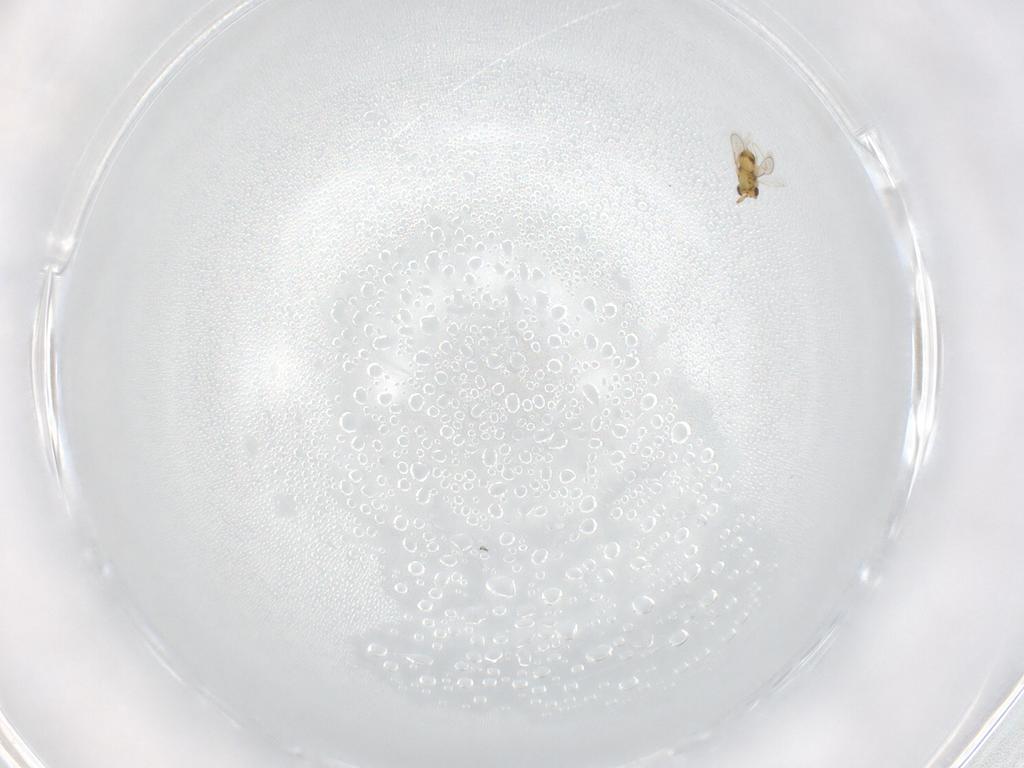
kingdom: Animalia
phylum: Arthropoda
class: Insecta
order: Hymenoptera
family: Aphelinidae
